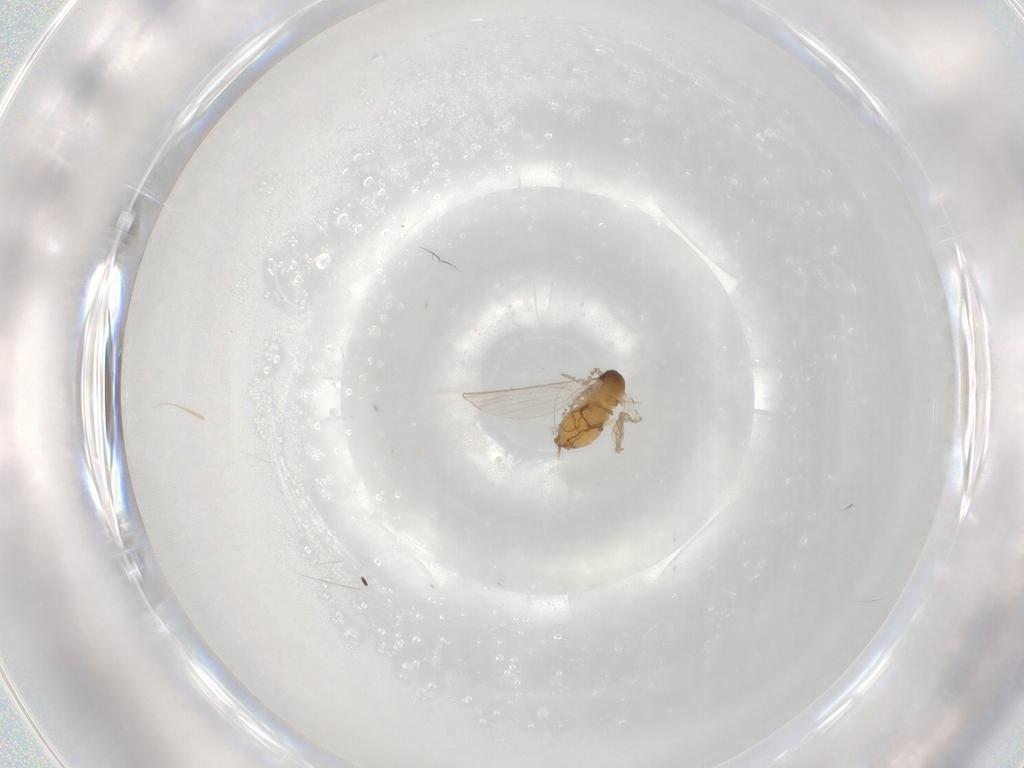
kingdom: Animalia
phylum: Arthropoda
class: Insecta
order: Diptera
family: Psychodidae
